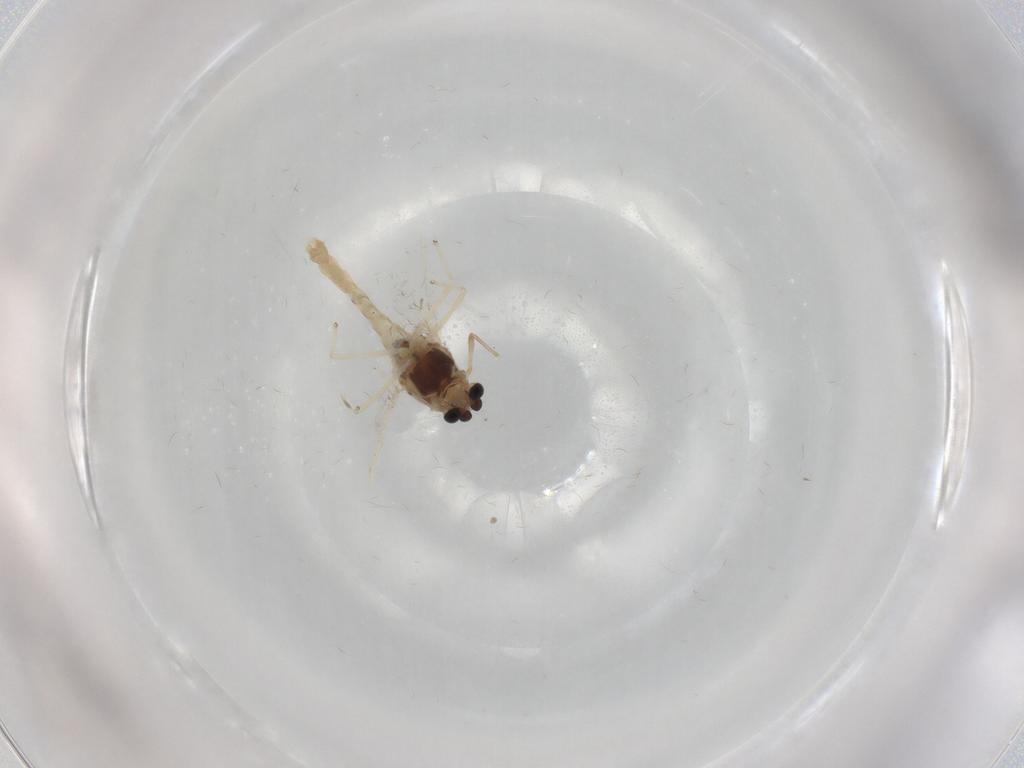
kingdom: Animalia
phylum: Arthropoda
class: Insecta
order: Diptera
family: Chironomidae
